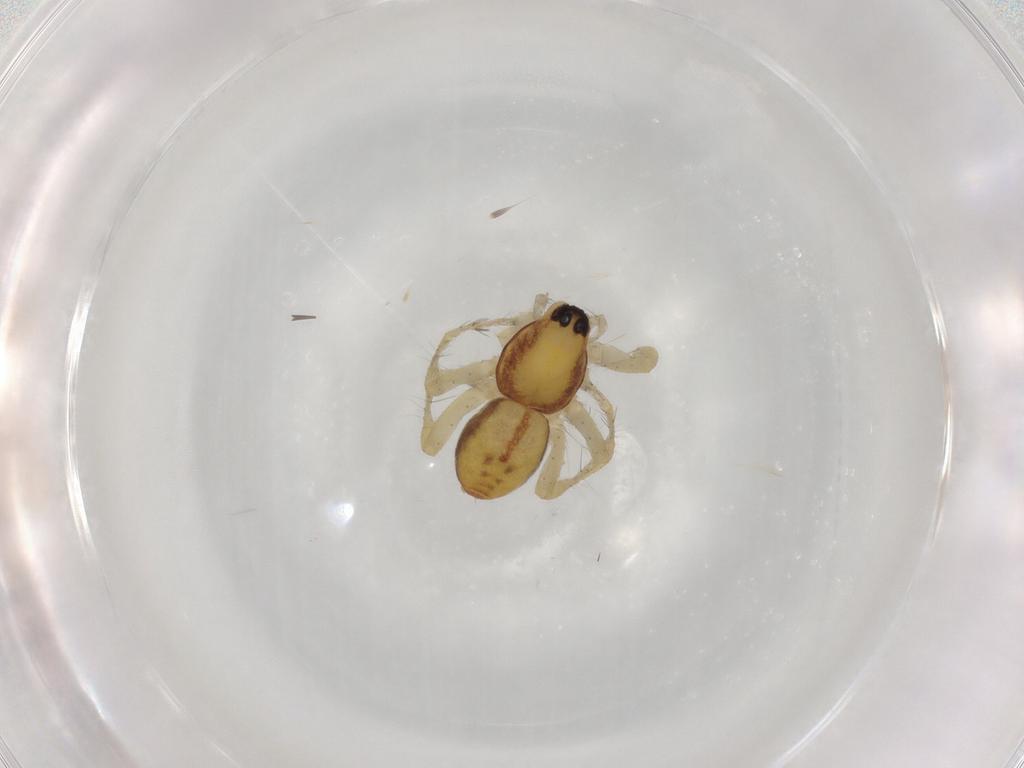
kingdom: Animalia
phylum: Arthropoda
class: Arachnida
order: Araneae
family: Anyphaenidae
